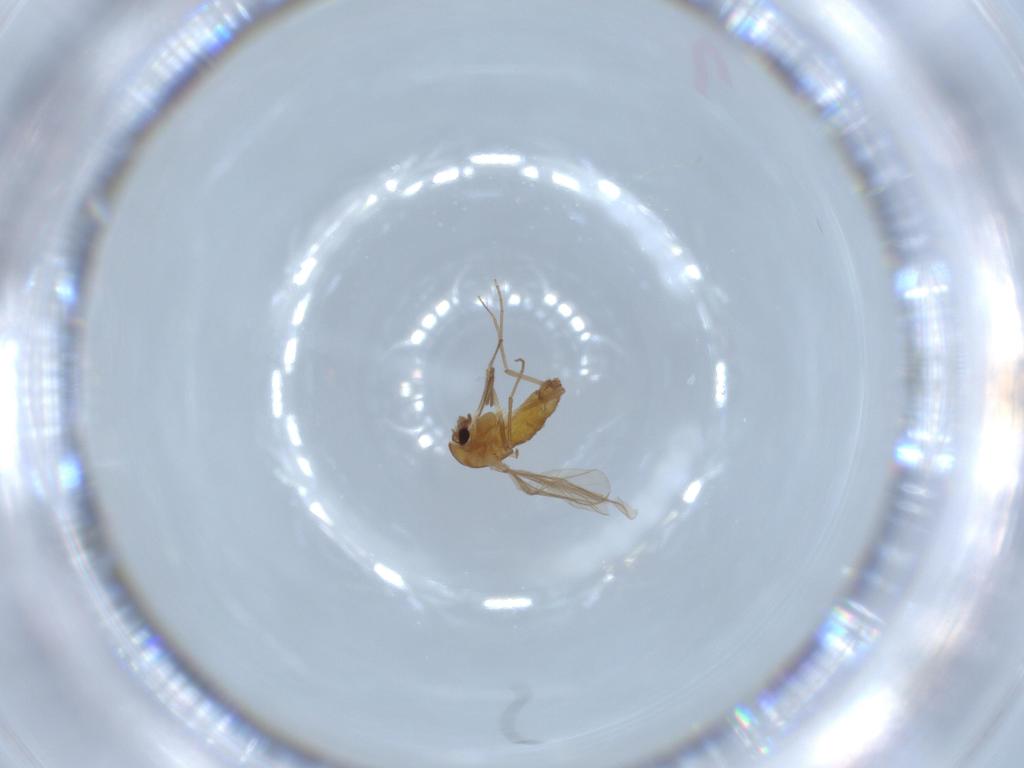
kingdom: Animalia
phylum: Arthropoda
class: Insecta
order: Diptera
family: Chironomidae
